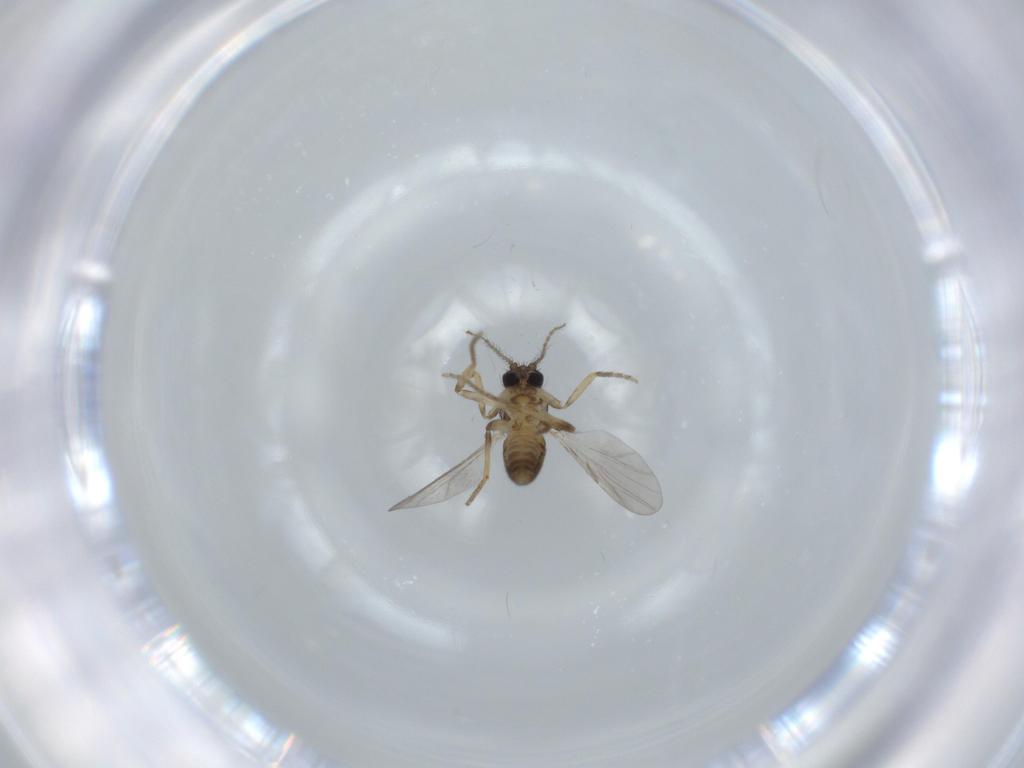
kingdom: Animalia
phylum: Arthropoda
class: Insecta
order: Diptera
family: Ceratopogonidae
